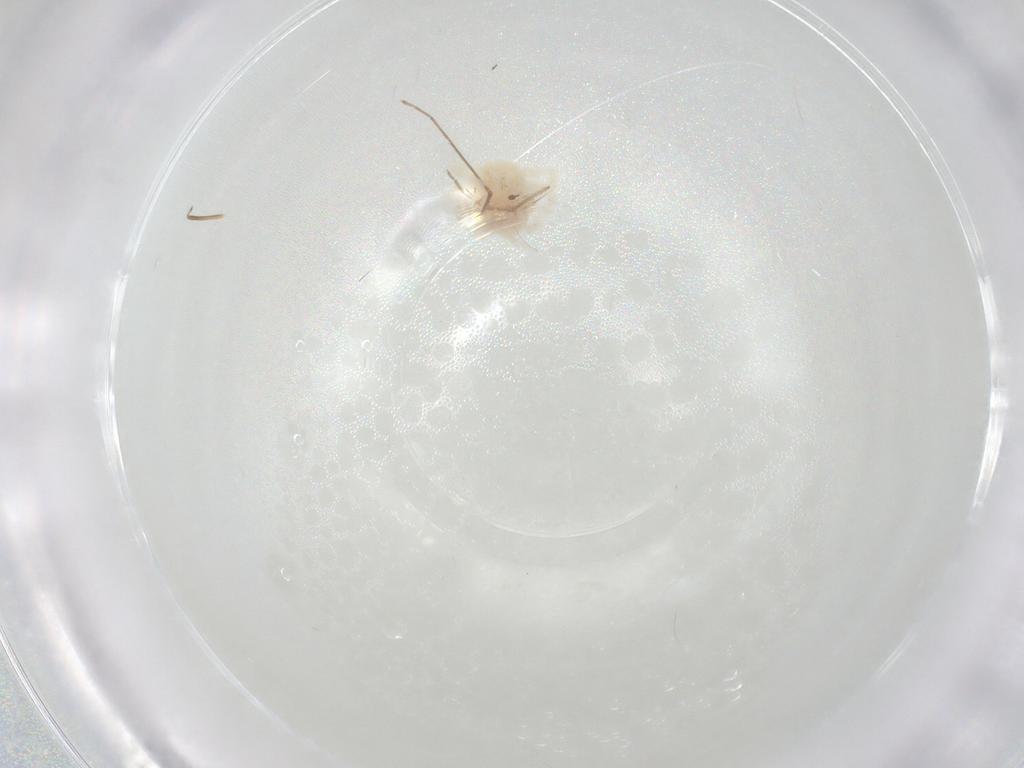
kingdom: Animalia
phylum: Arthropoda
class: Arachnida
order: Trombidiformes
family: Anystidae
